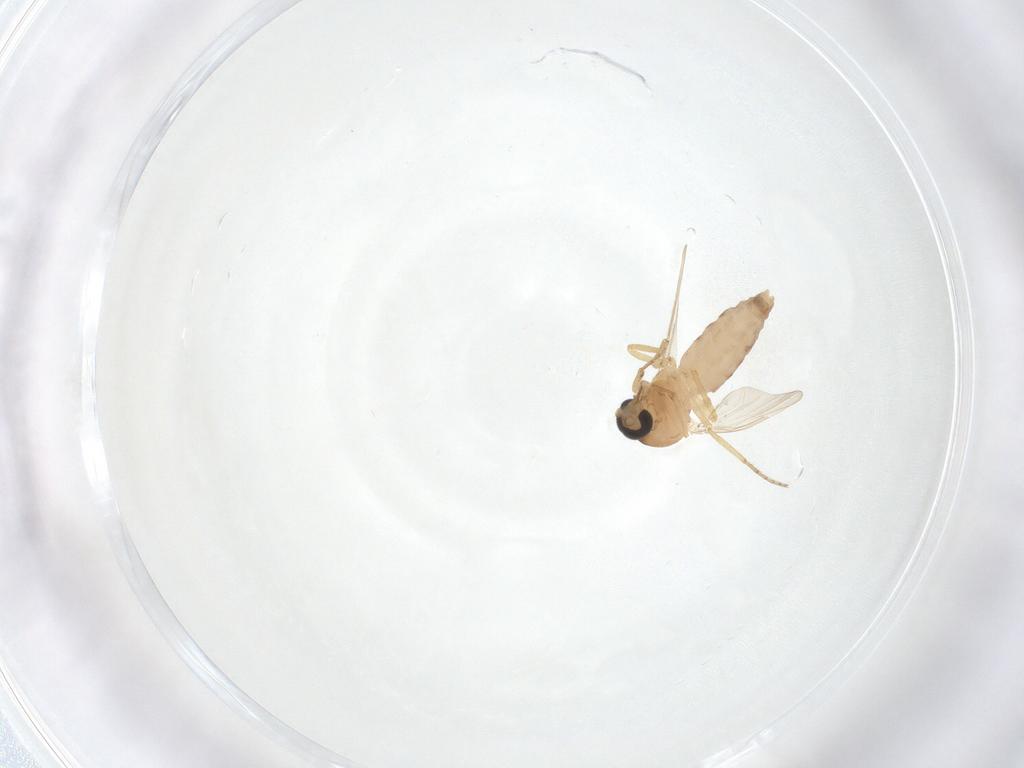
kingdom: Animalia
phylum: Arthropoda
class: Insecta
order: Diptera
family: Ceratopogonidae
